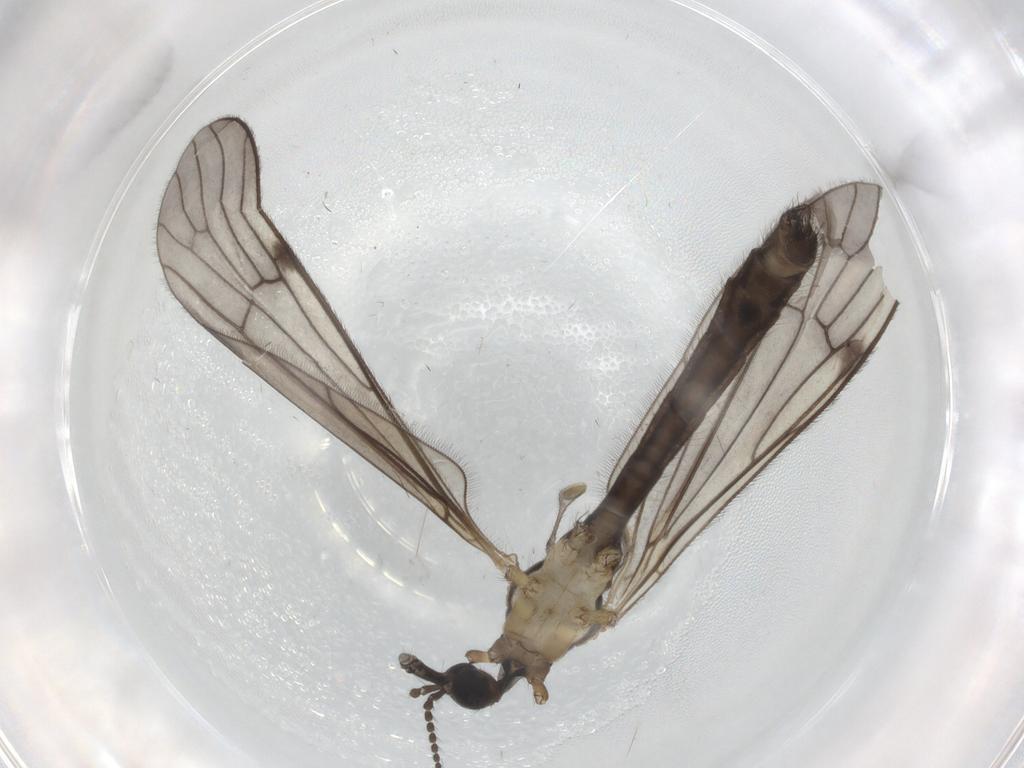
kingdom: Animalia
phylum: Arthropoda
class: Insecta
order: Diptera
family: Limoniidae
